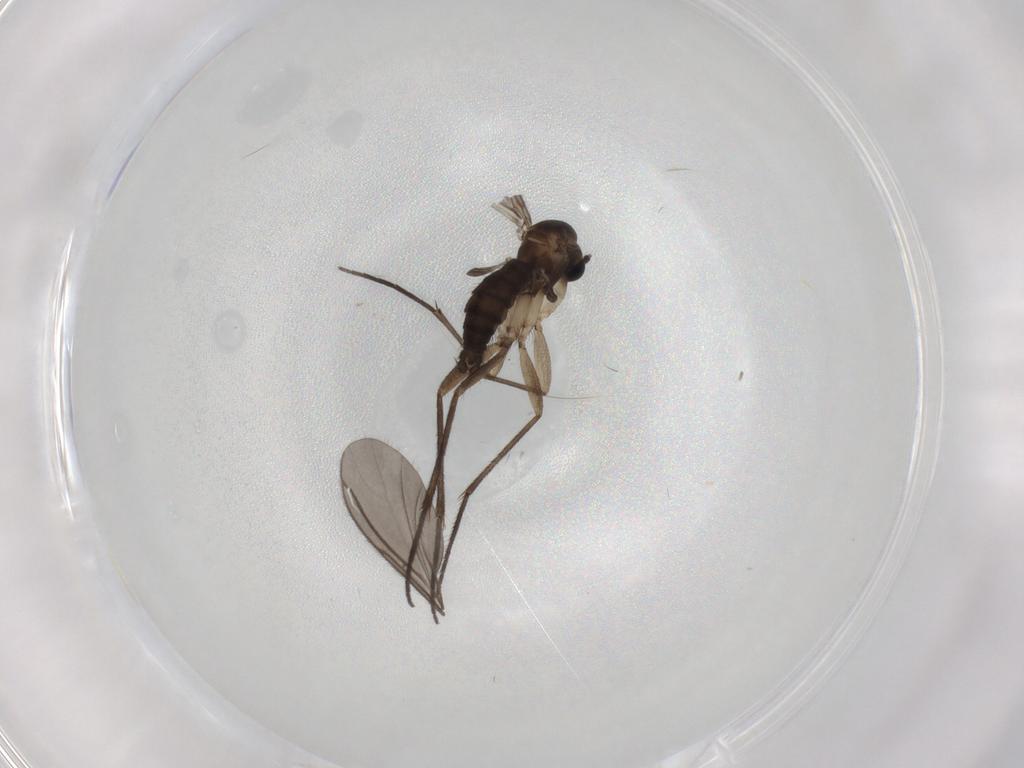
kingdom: Animalia
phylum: Arthropoda
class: Insecta
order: Diptera
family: Sciaridae
